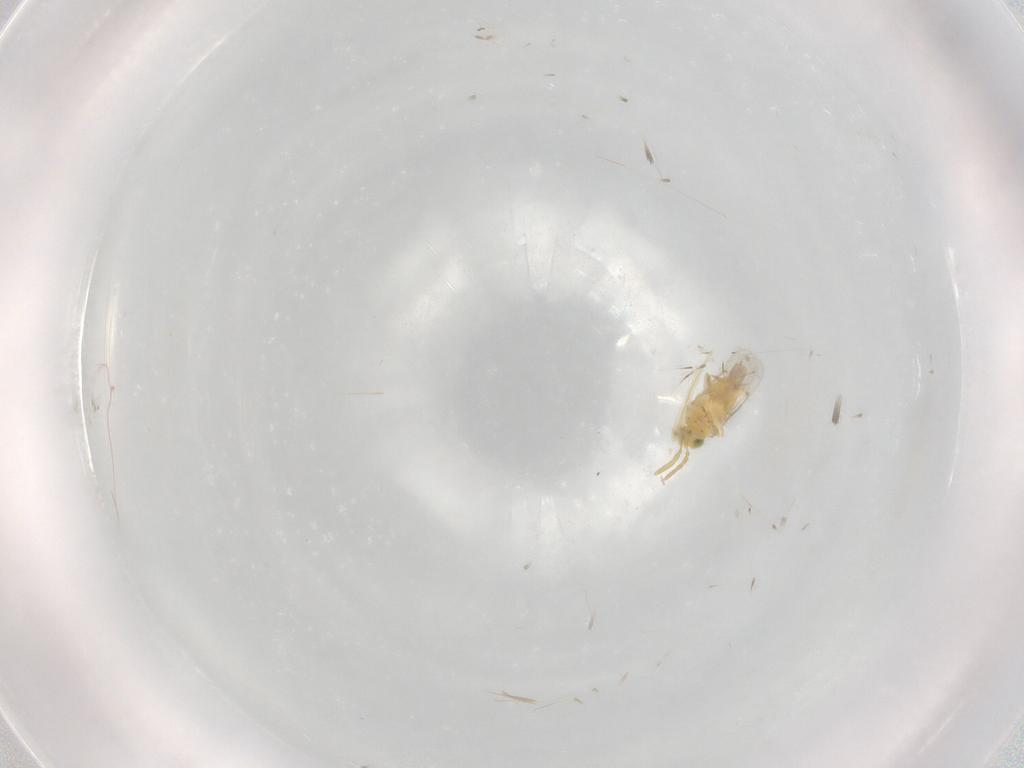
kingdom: Animalia
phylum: Arthropoda
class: Insecta
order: Hymenoptera
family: Aphelinidae
